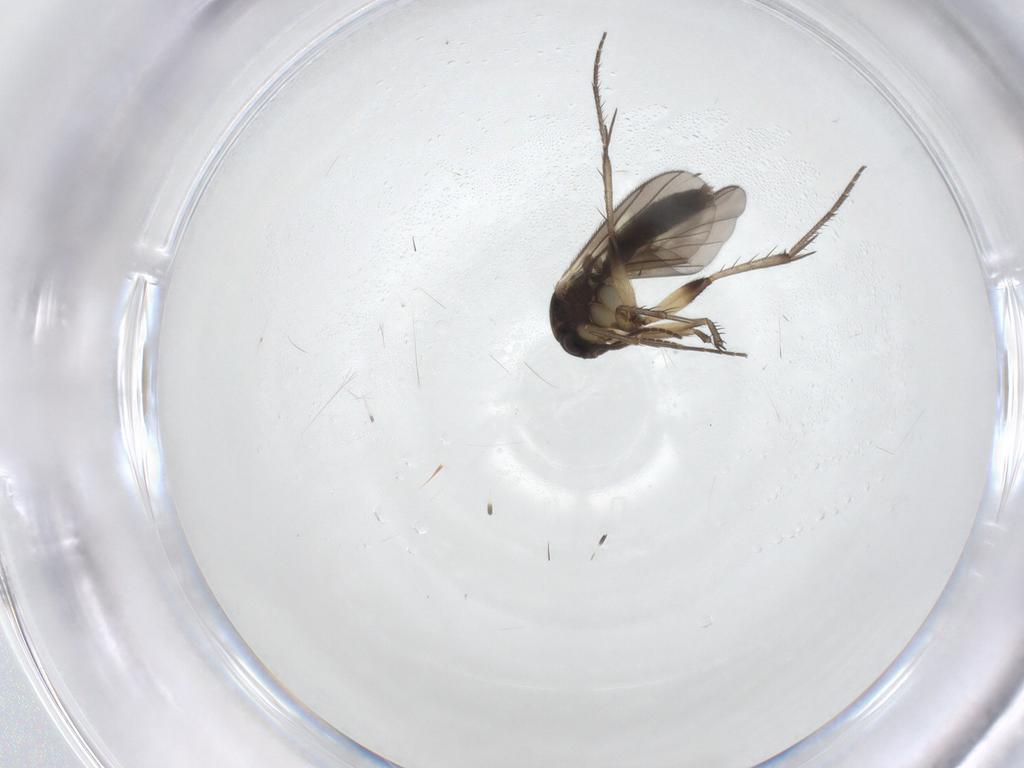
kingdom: Animalia
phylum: Arthropoda
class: Insecta
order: Diptera
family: Mycetophilidae
